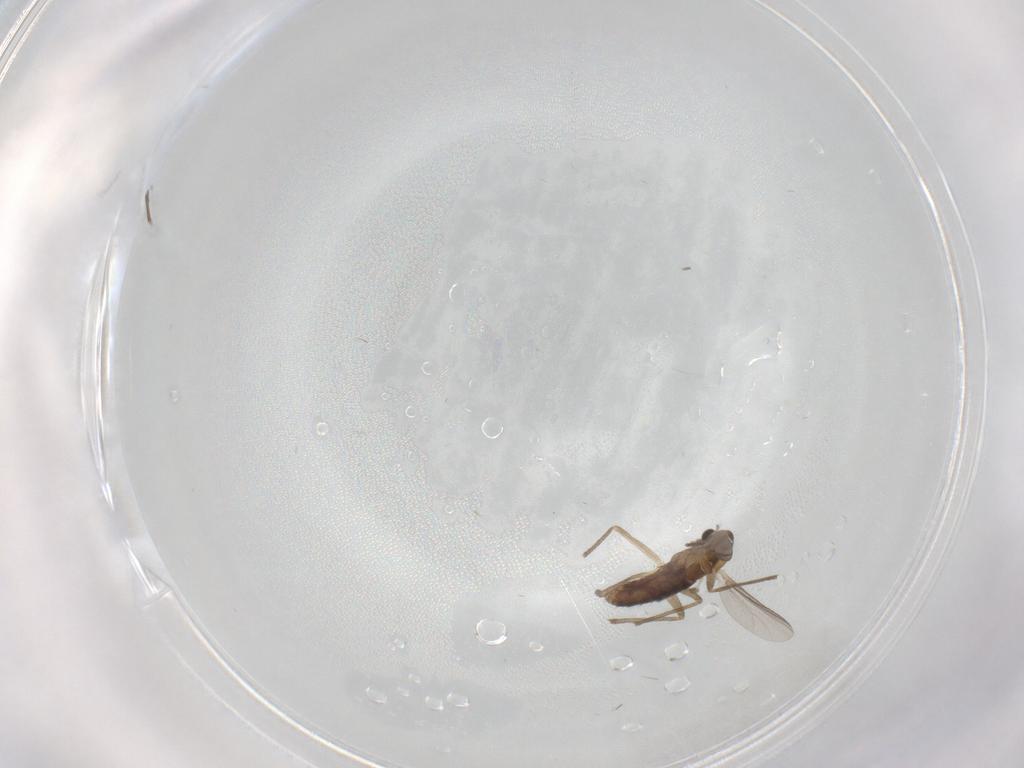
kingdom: Animalia
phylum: Arthropoda
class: Insecta
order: Diptera
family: Chironomidae
